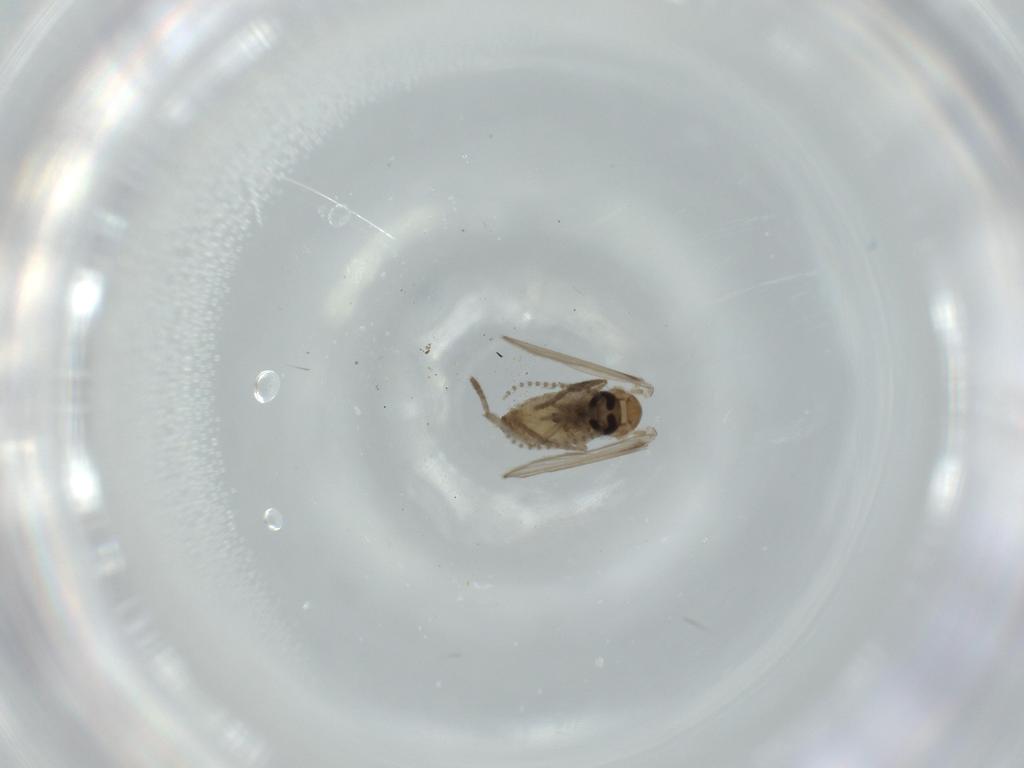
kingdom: Animalia
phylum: Arthropoda
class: Insecta
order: Diptera
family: Psychodidae
